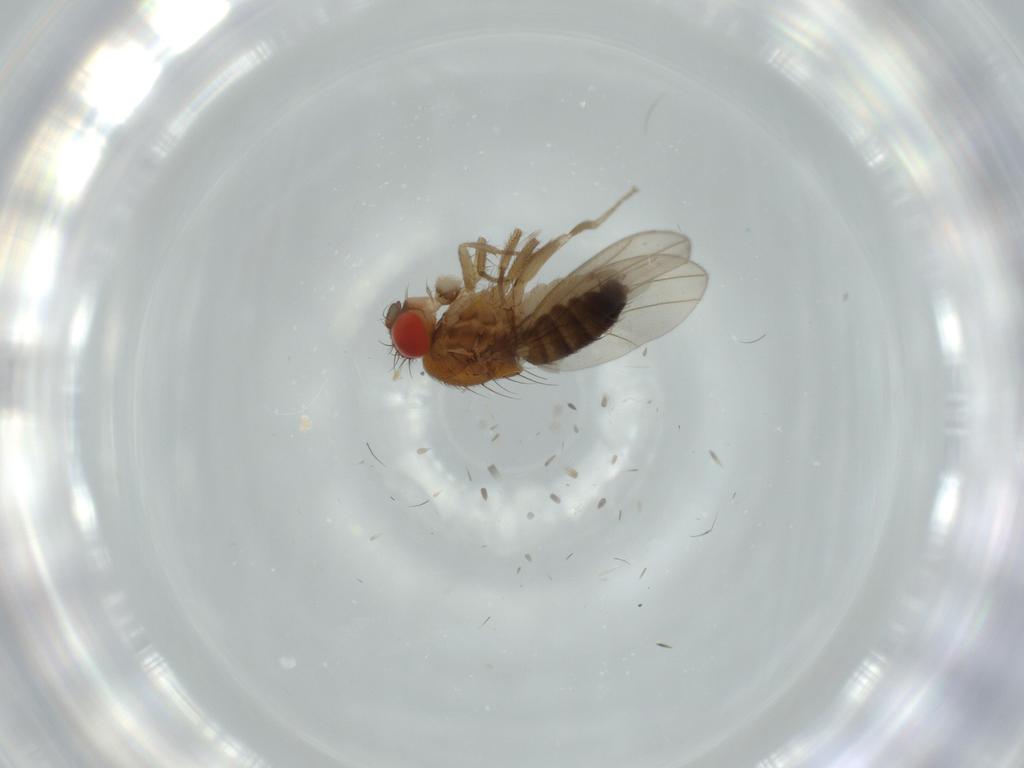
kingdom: Animalia
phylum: Arthropoda
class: Insecta
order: Diptera
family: Drosophilidae
